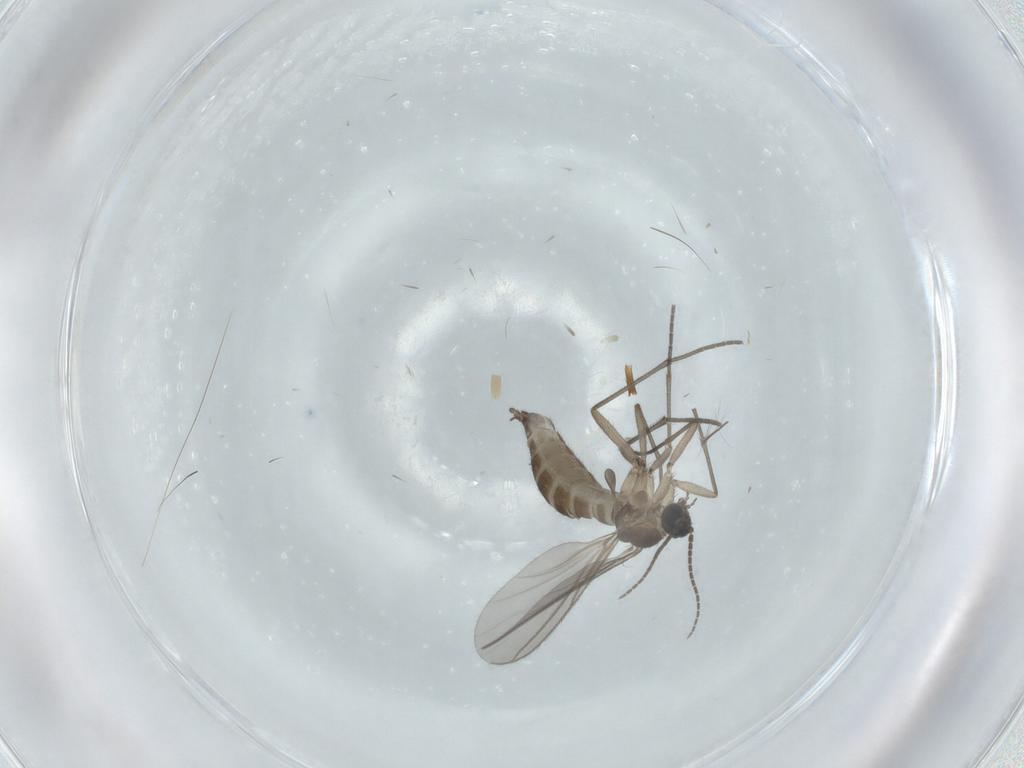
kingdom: Animalia
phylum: Arthropoda
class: Insecta
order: Diptera
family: Sciaridae
